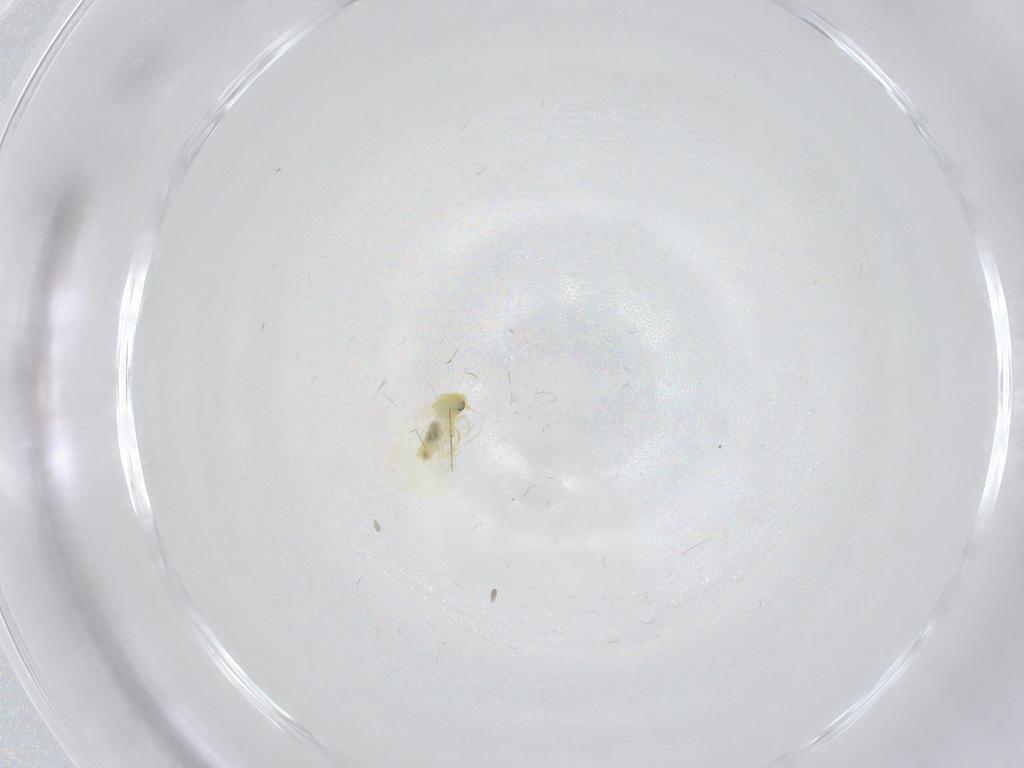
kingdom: Animalia
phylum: Arthropoda
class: Insecta
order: Hemiptera
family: Aleyrodidae
